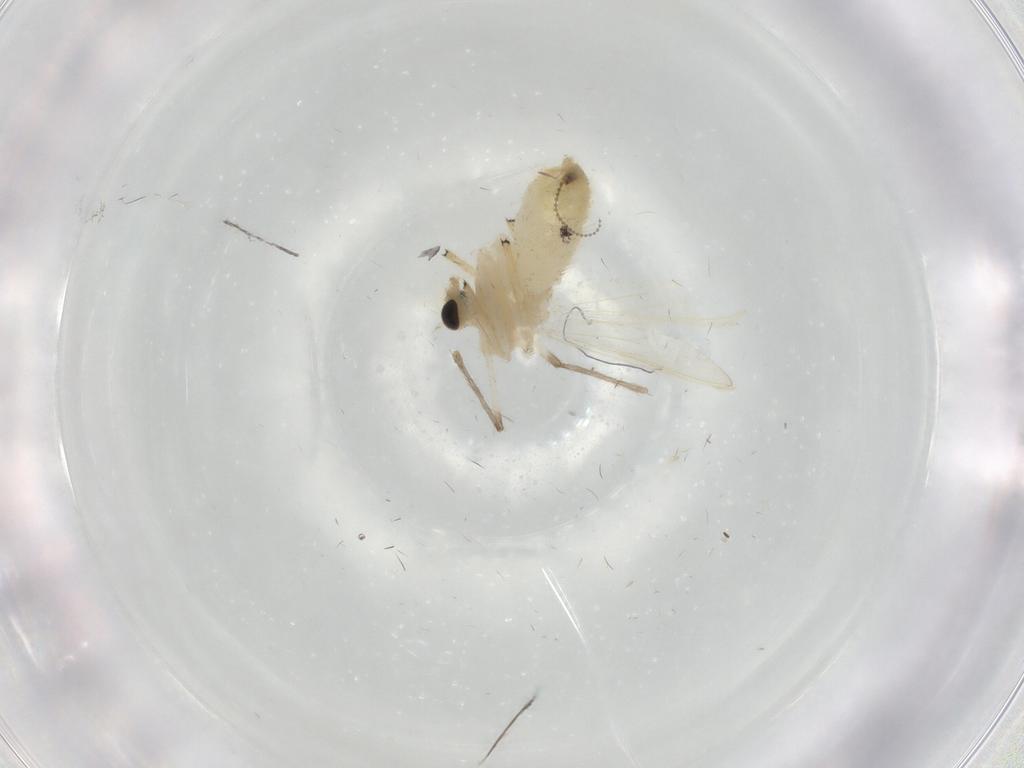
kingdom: Animalia
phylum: Arthropoda
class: Insecta
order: Diptera
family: Chironomidae
